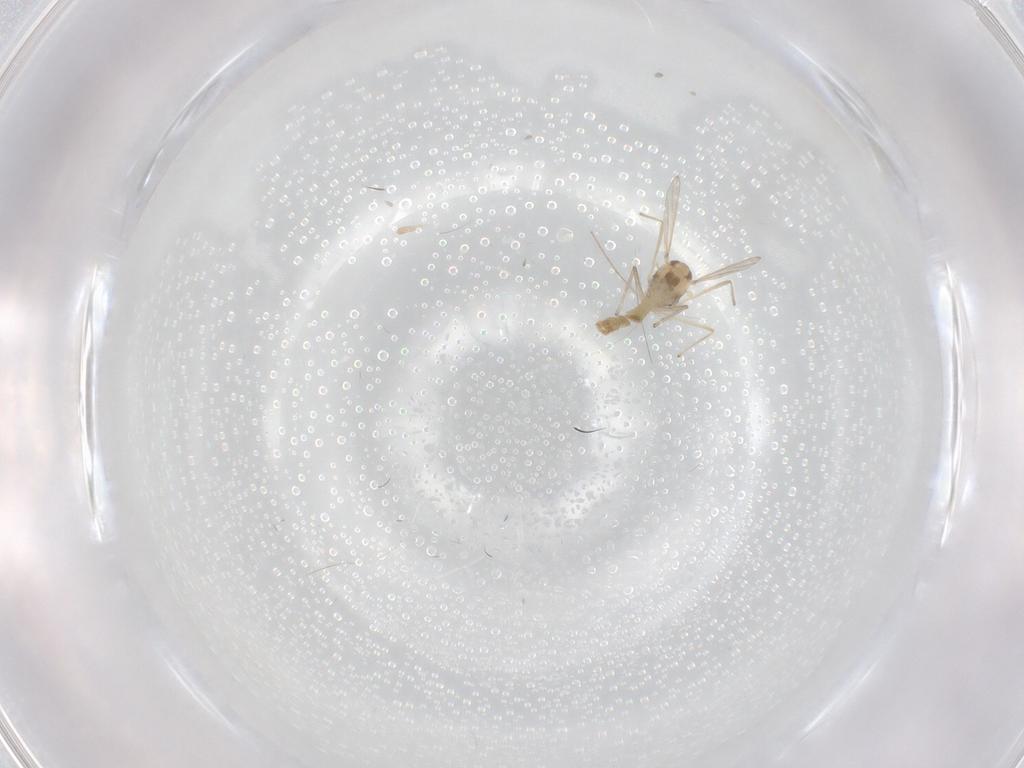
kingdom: Animalia
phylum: Arthropoda
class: Insecta
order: Diptera
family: Chironomidae
